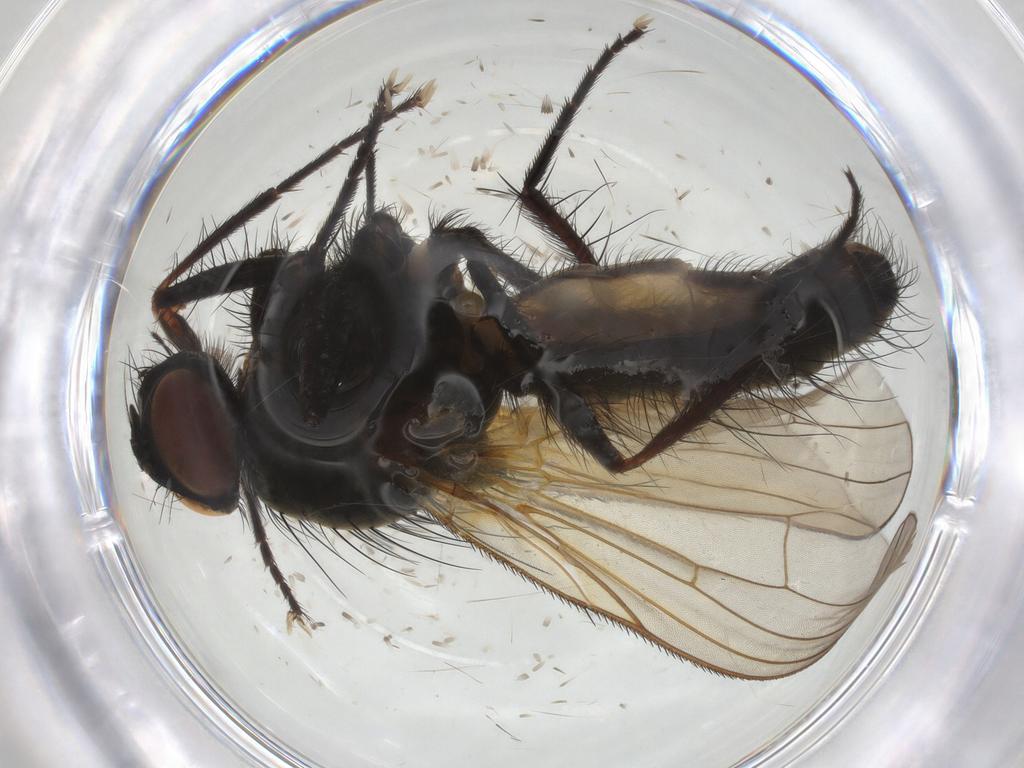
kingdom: Animalia
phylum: Arthropoda
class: Insecta
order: Diptera
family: Anthomyiidae
